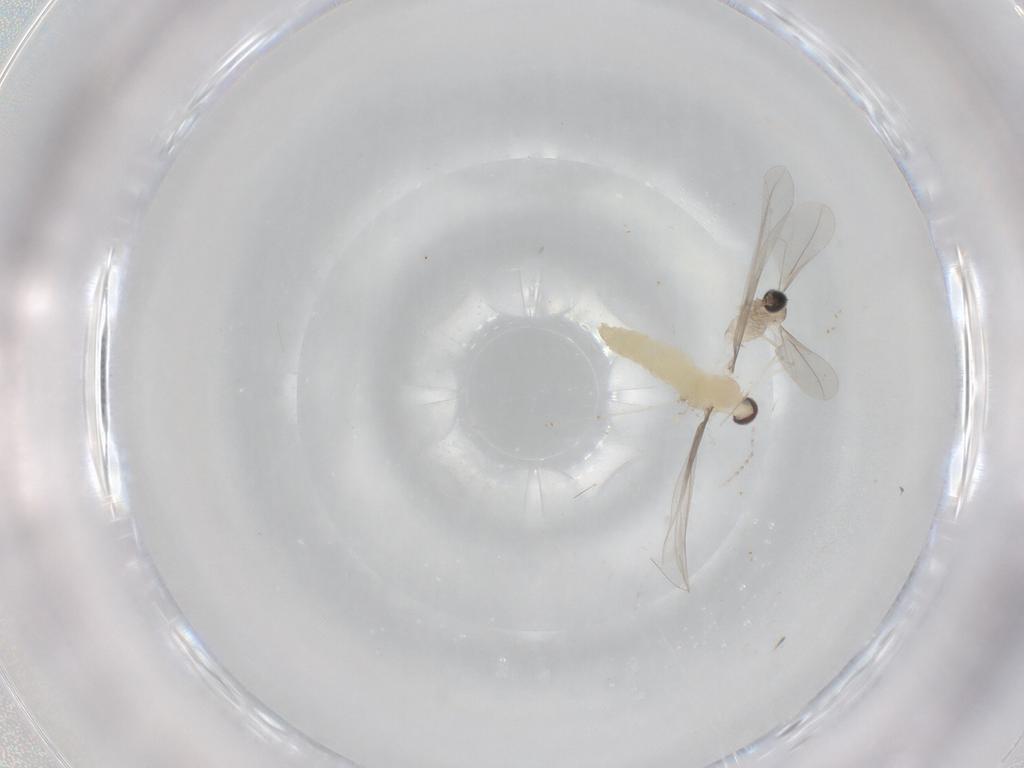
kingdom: Animalia
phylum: Arthropoda
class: Insecta
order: Diptera
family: Cecidomyiidae
